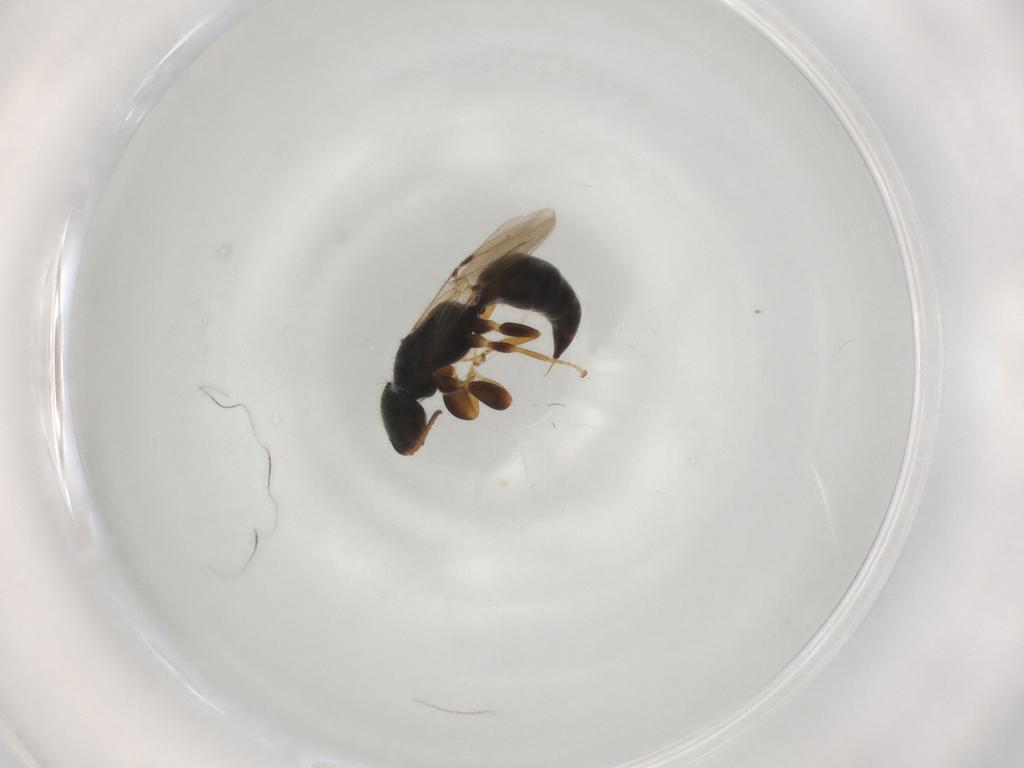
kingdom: Animalia
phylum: Arthropoda
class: Insecta
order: Hymenoptera
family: Bethylidae
